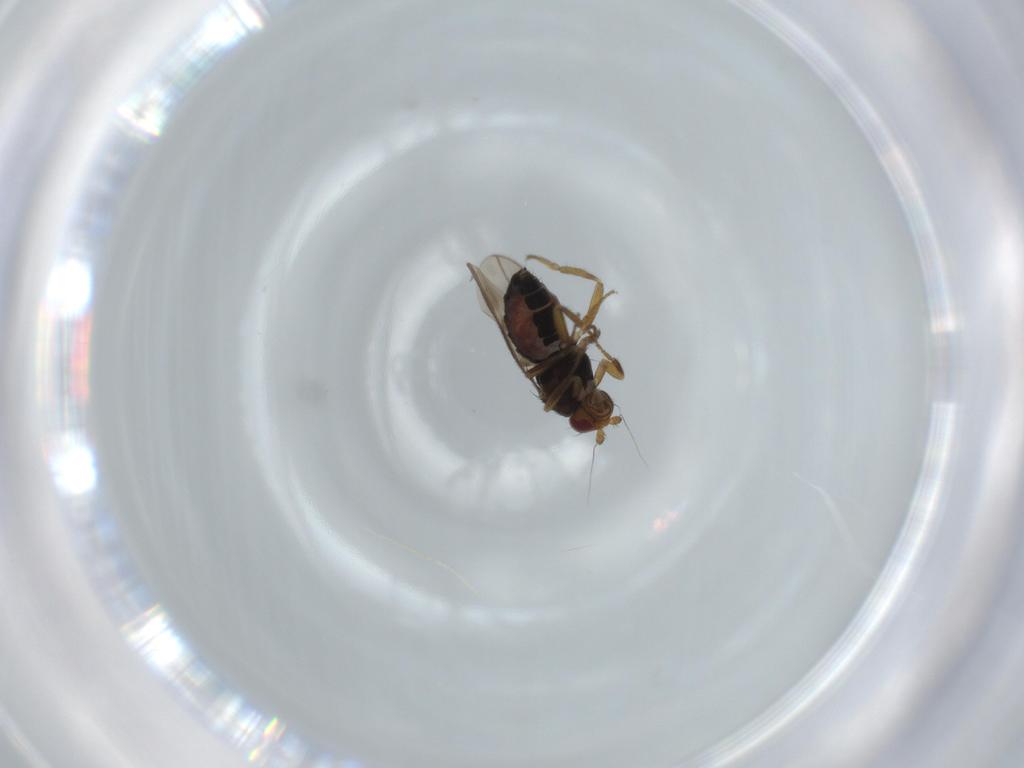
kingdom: Animalia
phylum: Arthropoda
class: Insecta
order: Diptera
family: Sphaeroceridae
